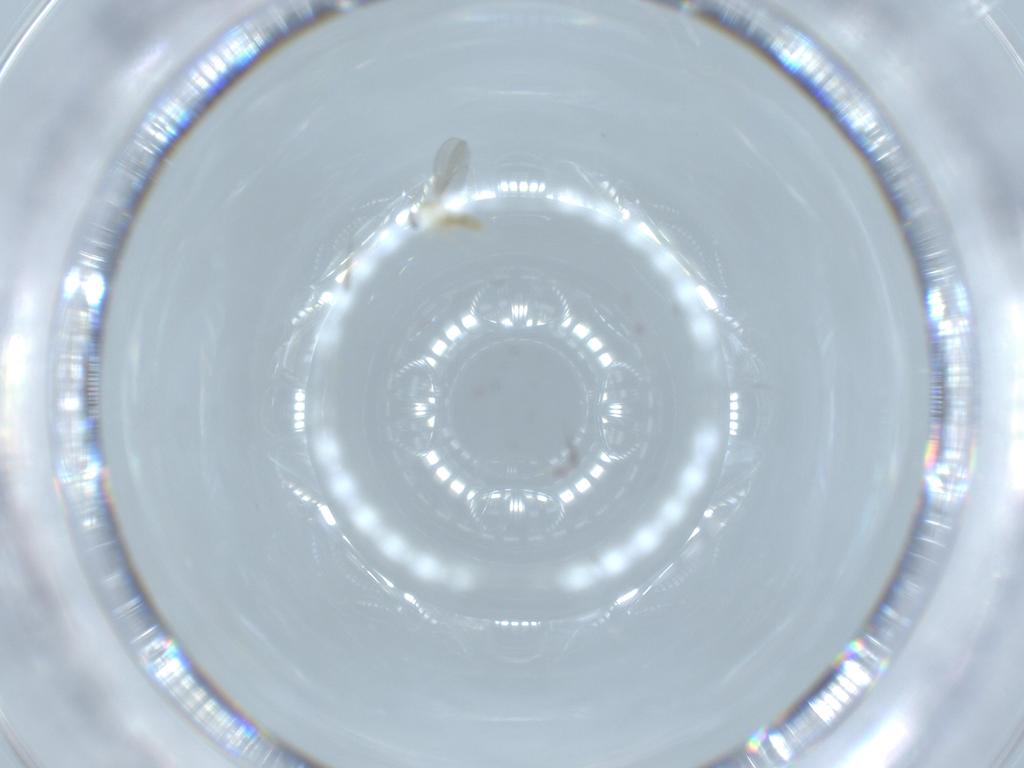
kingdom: Animalia
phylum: Arthropoda
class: Insecta
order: Diptera
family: Cecidomyiidae
